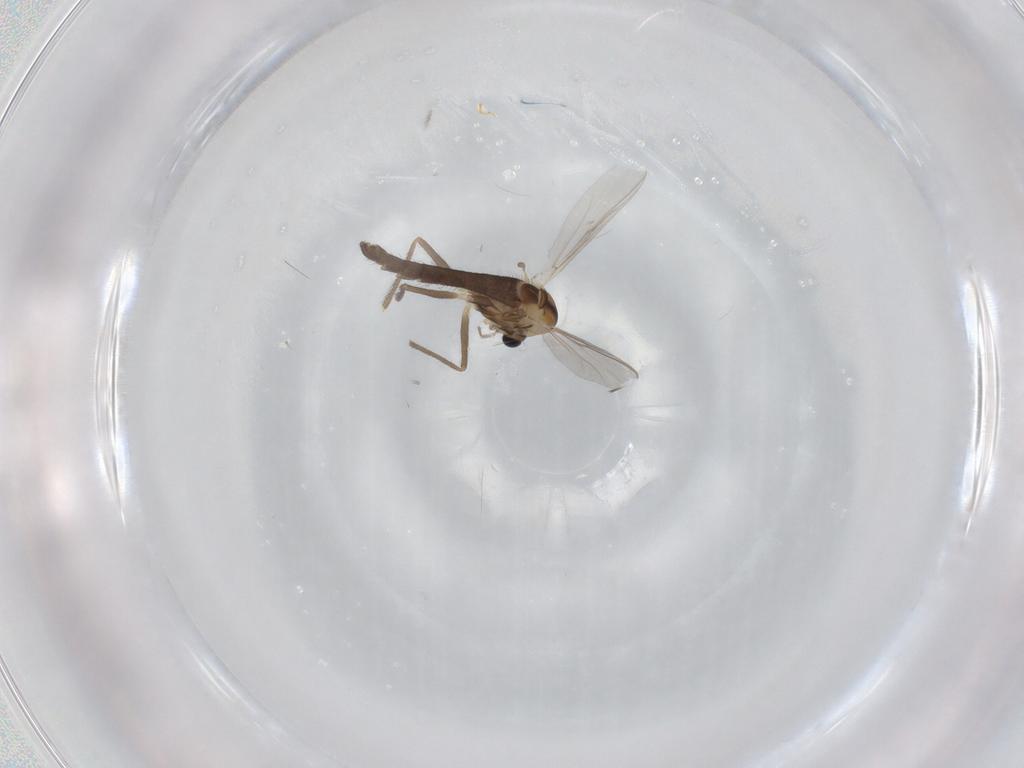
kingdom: Animalia
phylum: Arthropoda
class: Insecta
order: Diptera
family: Chironomidae
